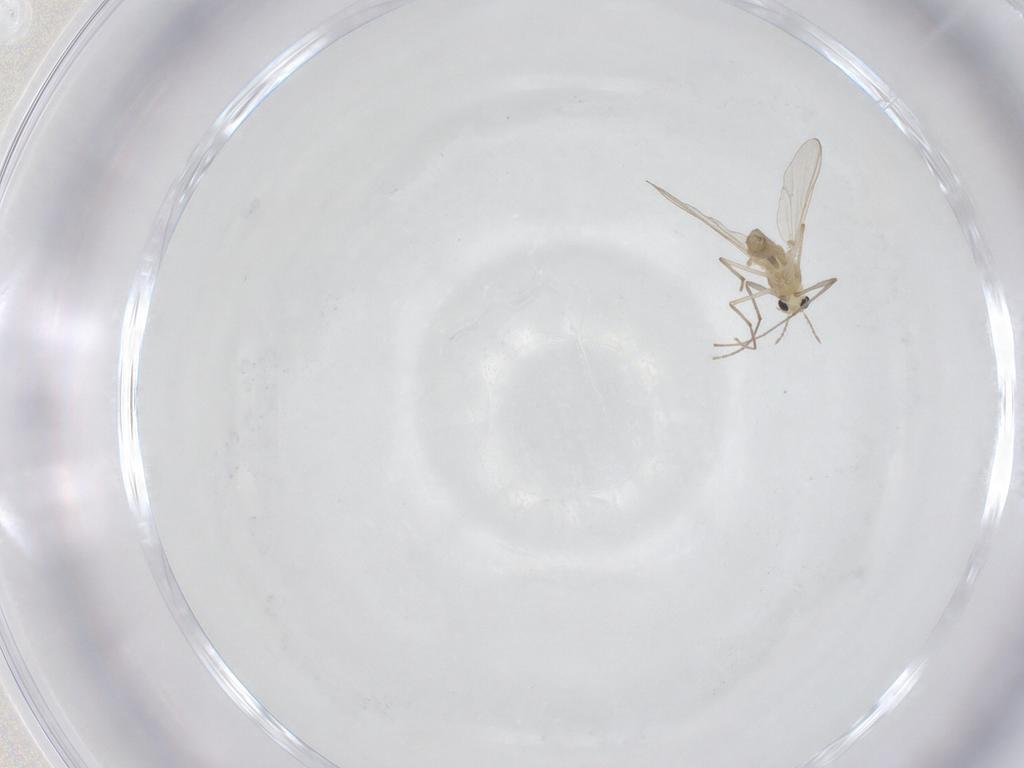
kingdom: Animalia
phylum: Arthropoda
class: Insecta
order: Diptera
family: Chironomidae
